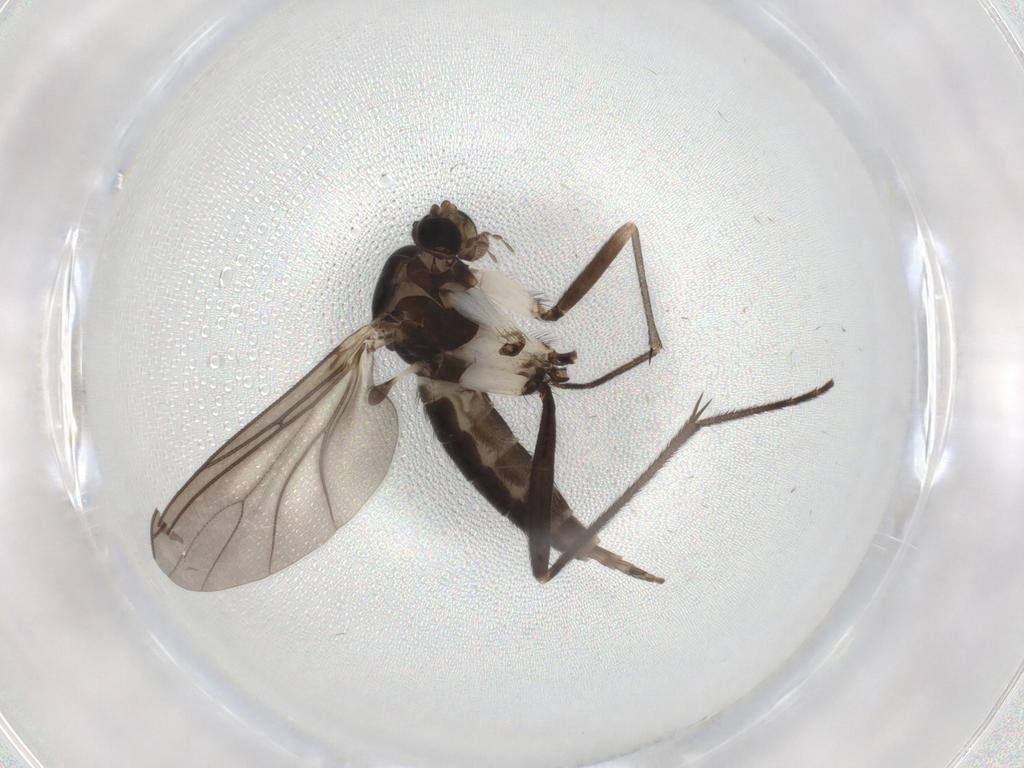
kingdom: Animalia
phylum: Arthropoda
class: Insecta
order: Diptera
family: Sciaridae
